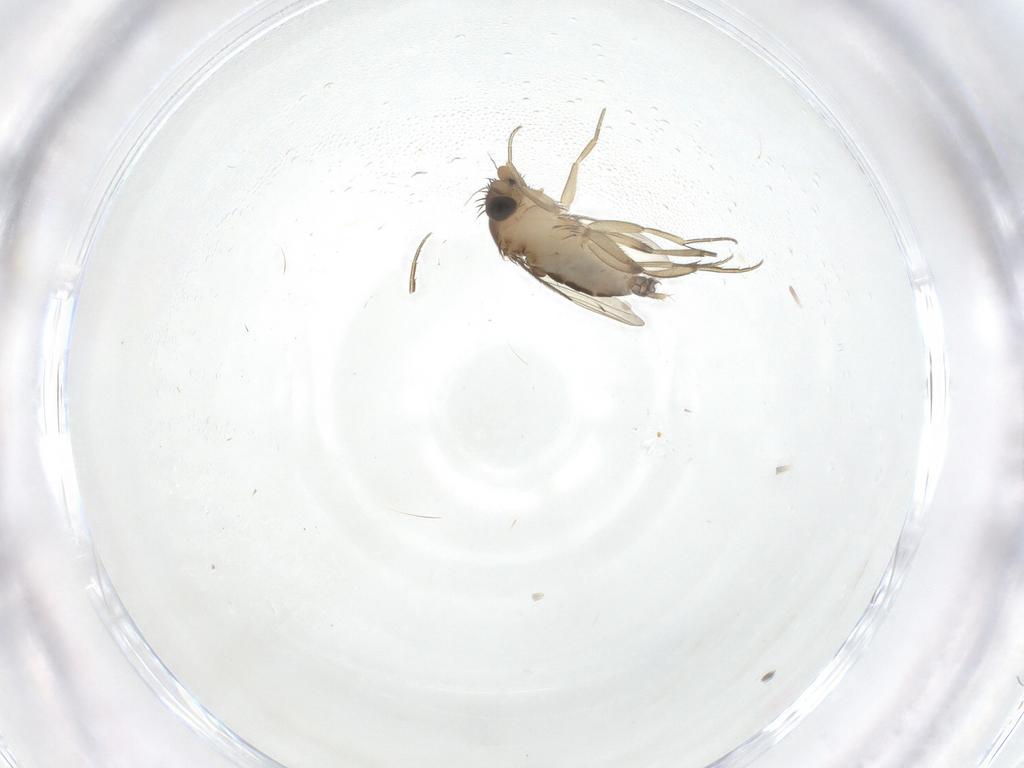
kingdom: Animalia
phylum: Arthropoda
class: Insecta
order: Diptera
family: Phoridae
